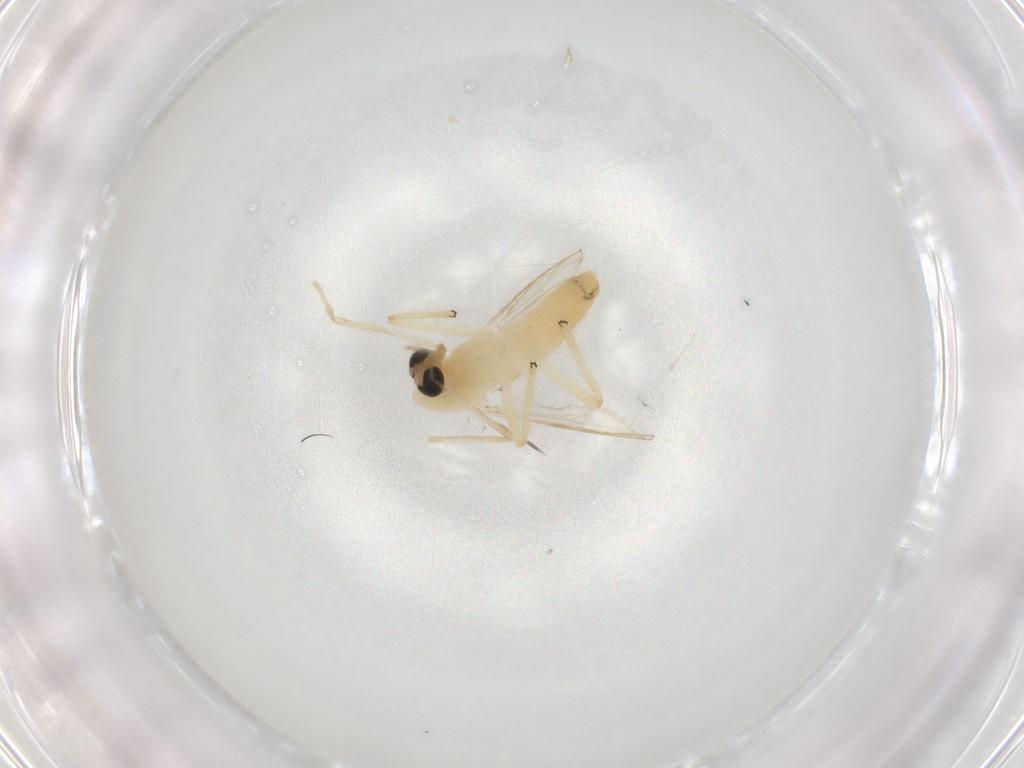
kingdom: Animalia
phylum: Arthropoda
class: Insecta
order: Diptera
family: Chironomidae
